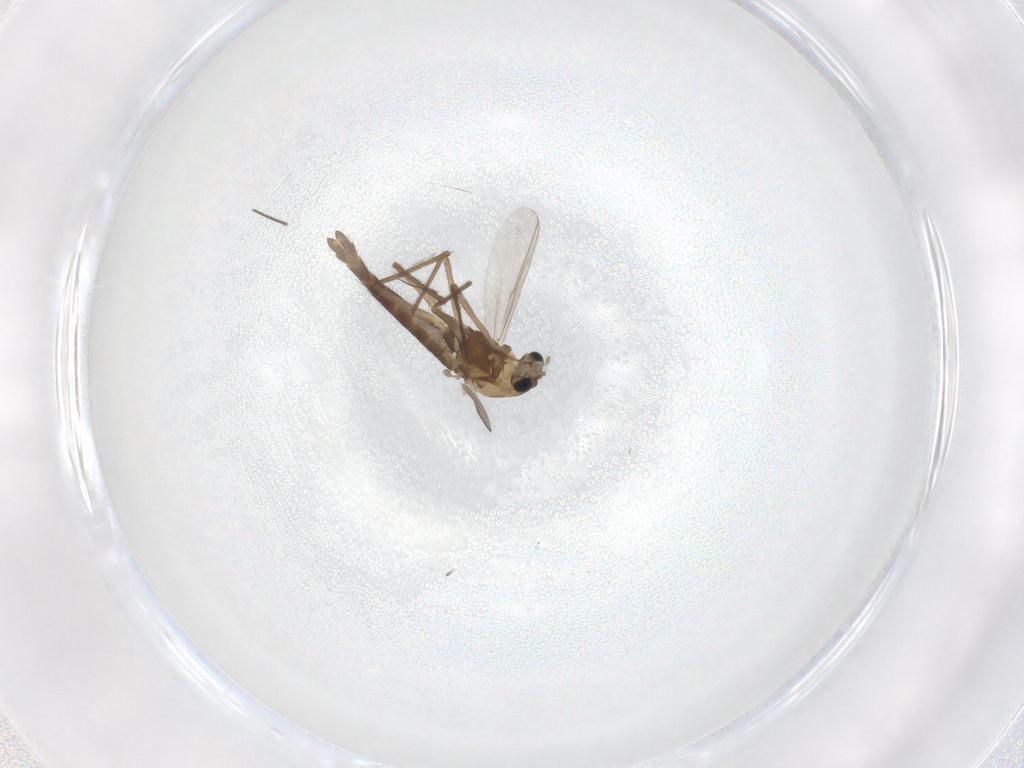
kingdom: Animalia
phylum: Arthropoda
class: Insecta
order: Diptera
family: Chironomidae
